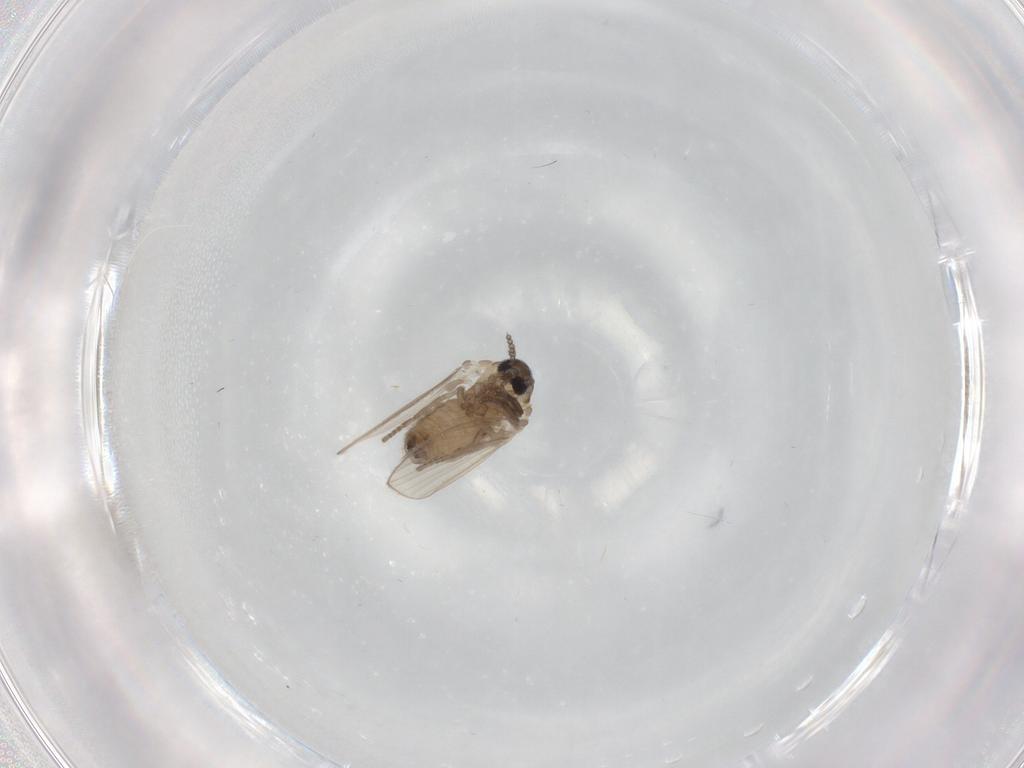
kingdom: Animalia
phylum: Arthropoda
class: Insecta
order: Diptera
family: Psychodidae
